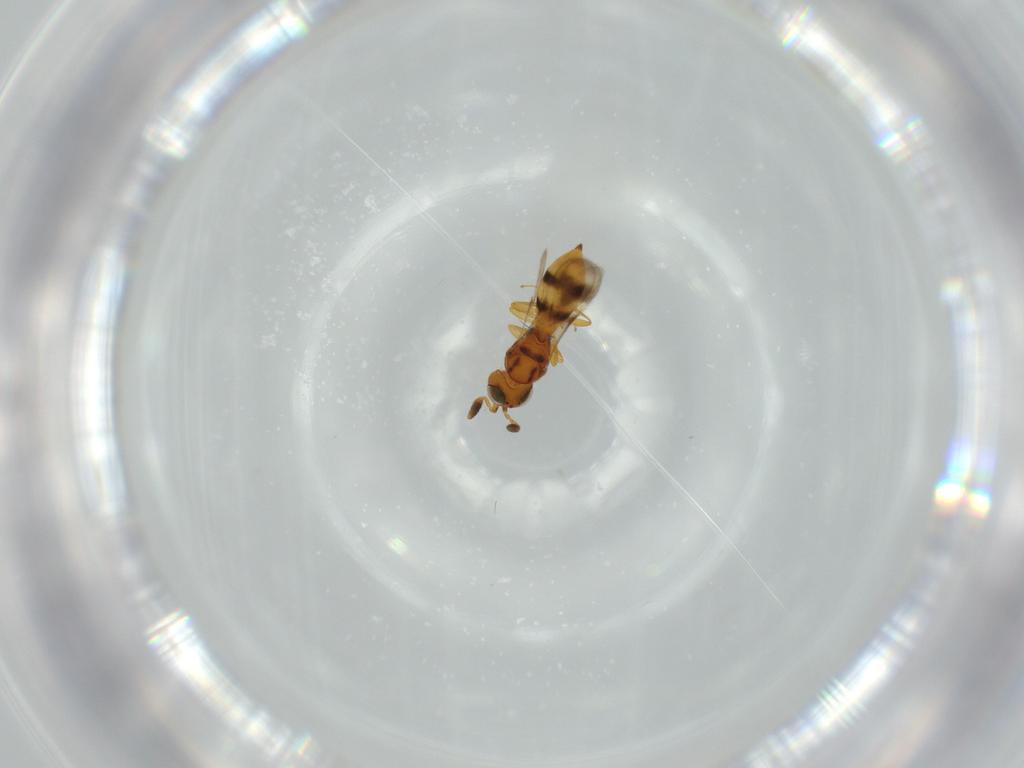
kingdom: Animalia
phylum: Arthropoda
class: Insecta
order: Hymenoptera
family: Scelionidae
